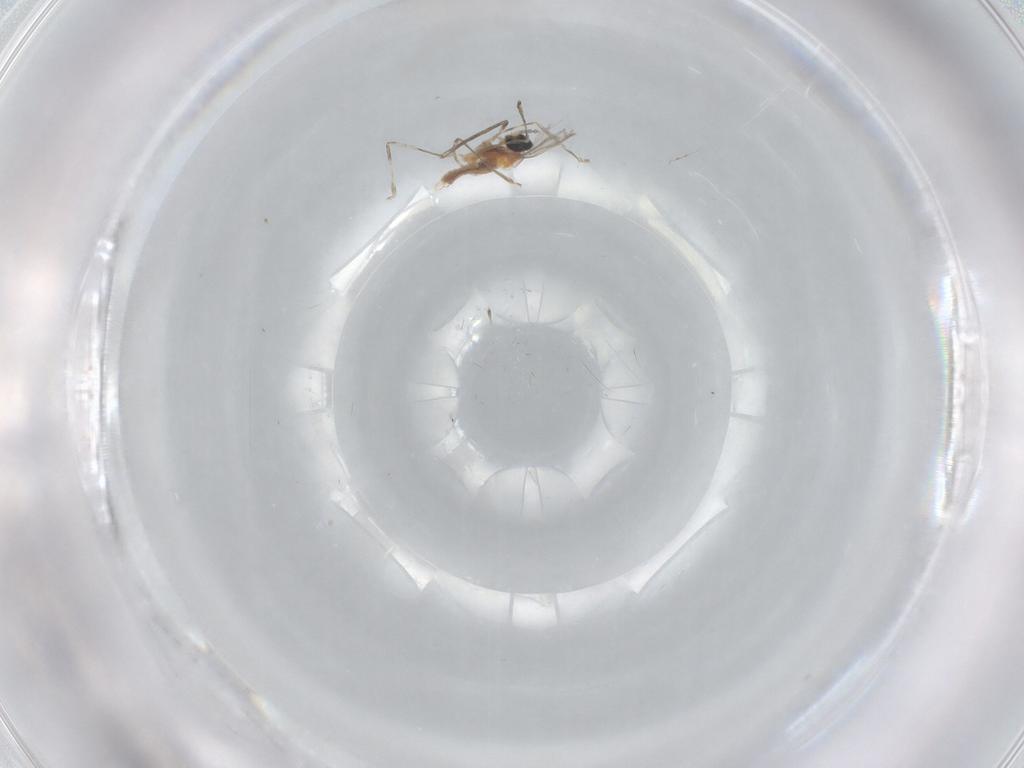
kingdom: Animalia
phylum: Arthropoda
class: Insecta
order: Diptera
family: Cecidomyiidae
